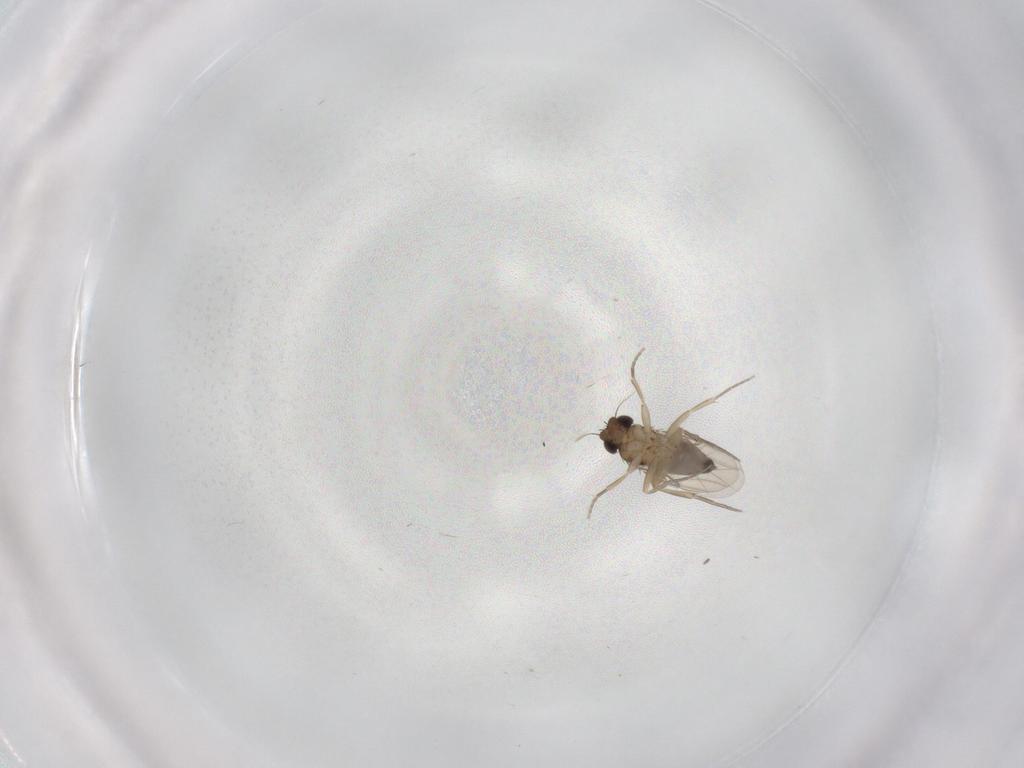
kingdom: Animalia
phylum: Arthropoda
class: Insecta
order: Diptera
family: Phoridae
